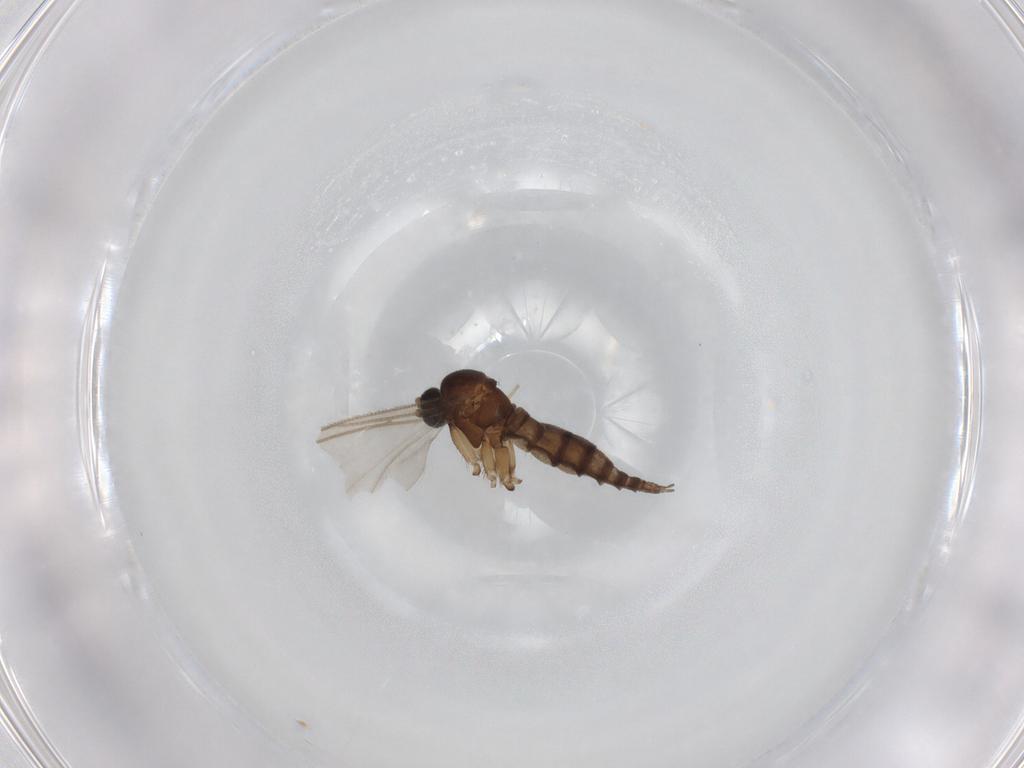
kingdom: Animalia
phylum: Arthropoda
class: Insecta
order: Diptera
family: Sciaridae
